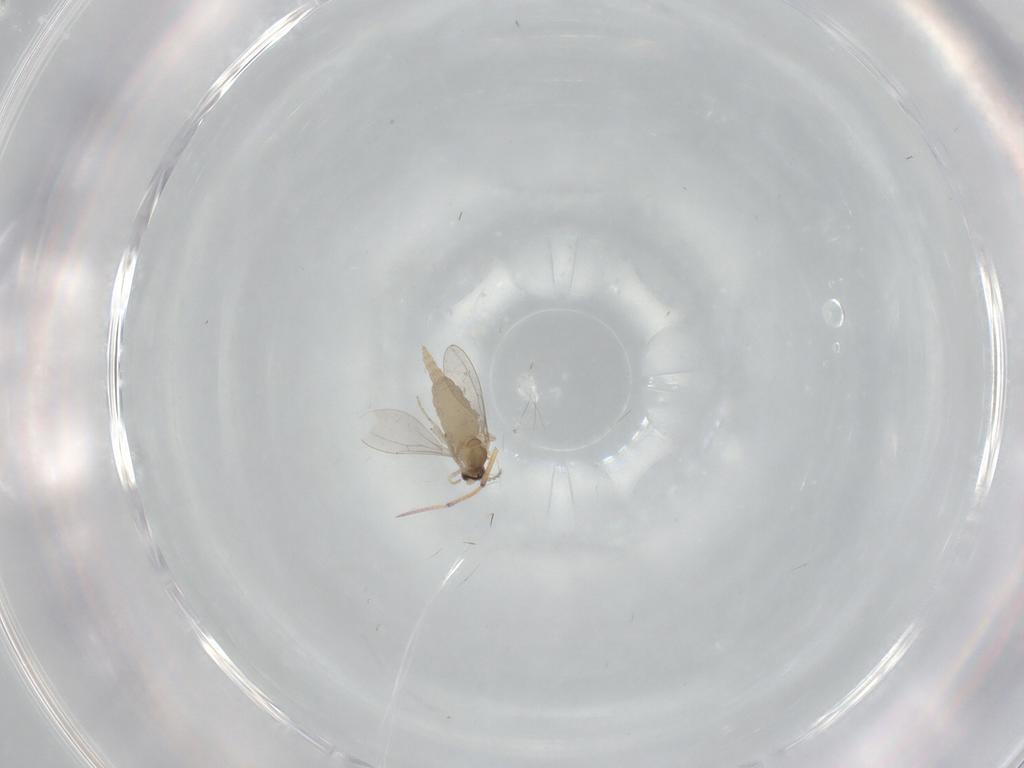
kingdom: Animalia
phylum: Arthropoda
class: Insecta
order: Diptera
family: Cecidomyiidae
